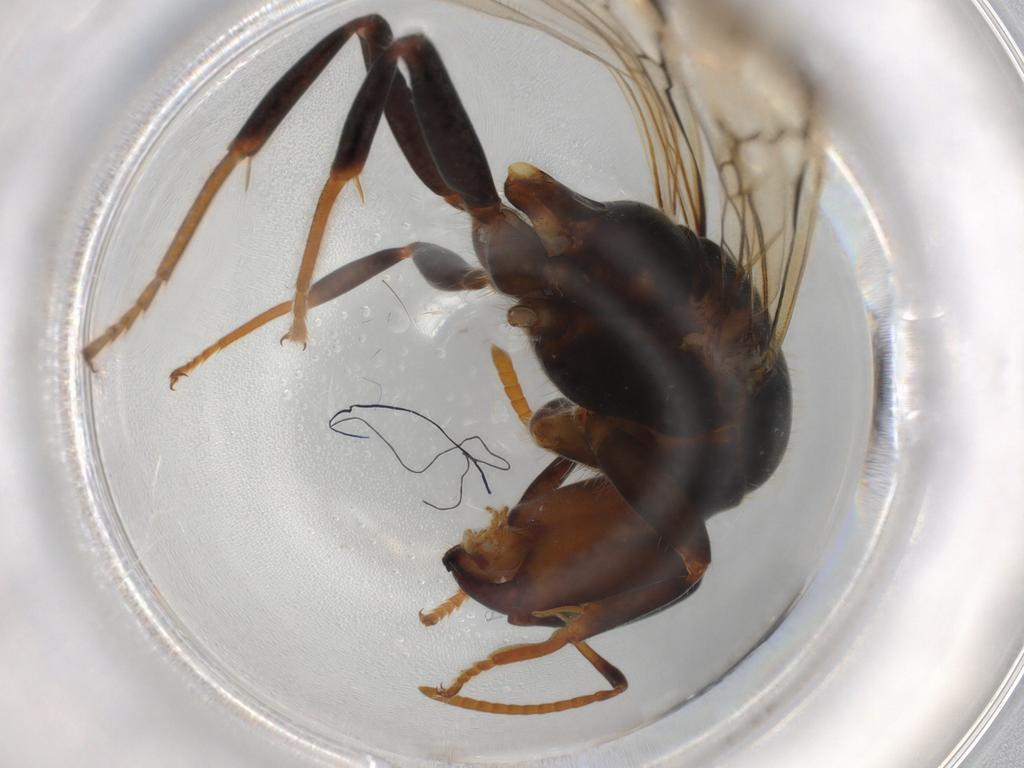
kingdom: Animalia
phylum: Arthropoda
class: Insecta
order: Hymenoptera
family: Formicidae
